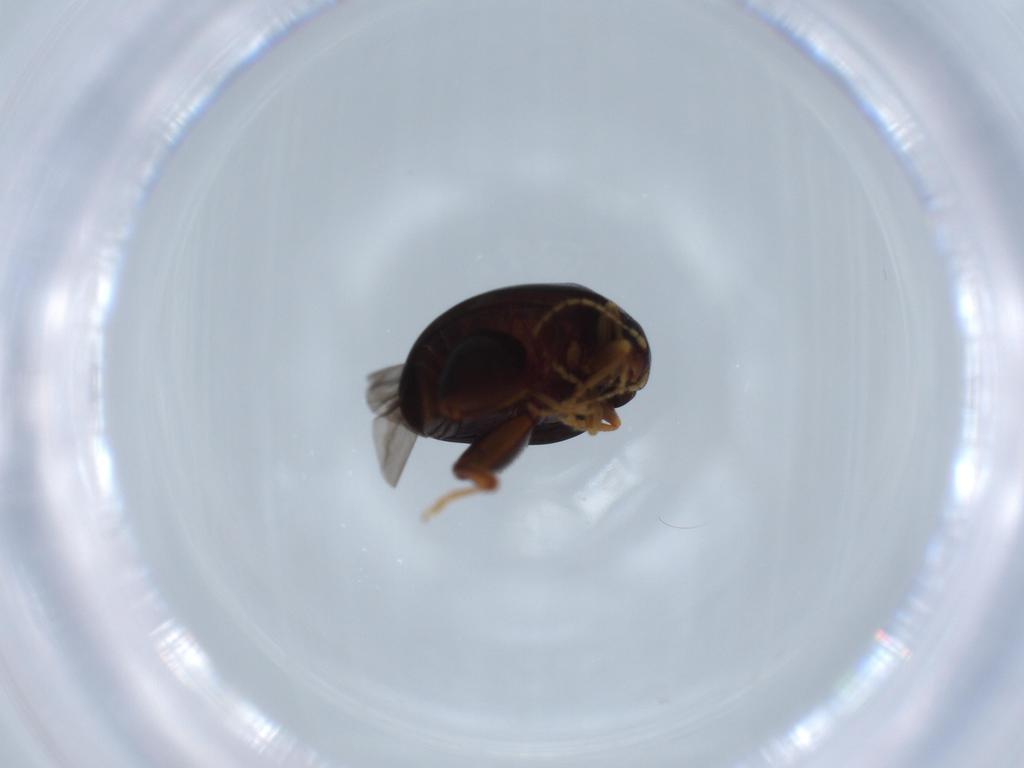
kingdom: Animalia
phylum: Arthropoda
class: Insecta
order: Coleoptera
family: Chrysomelidae
